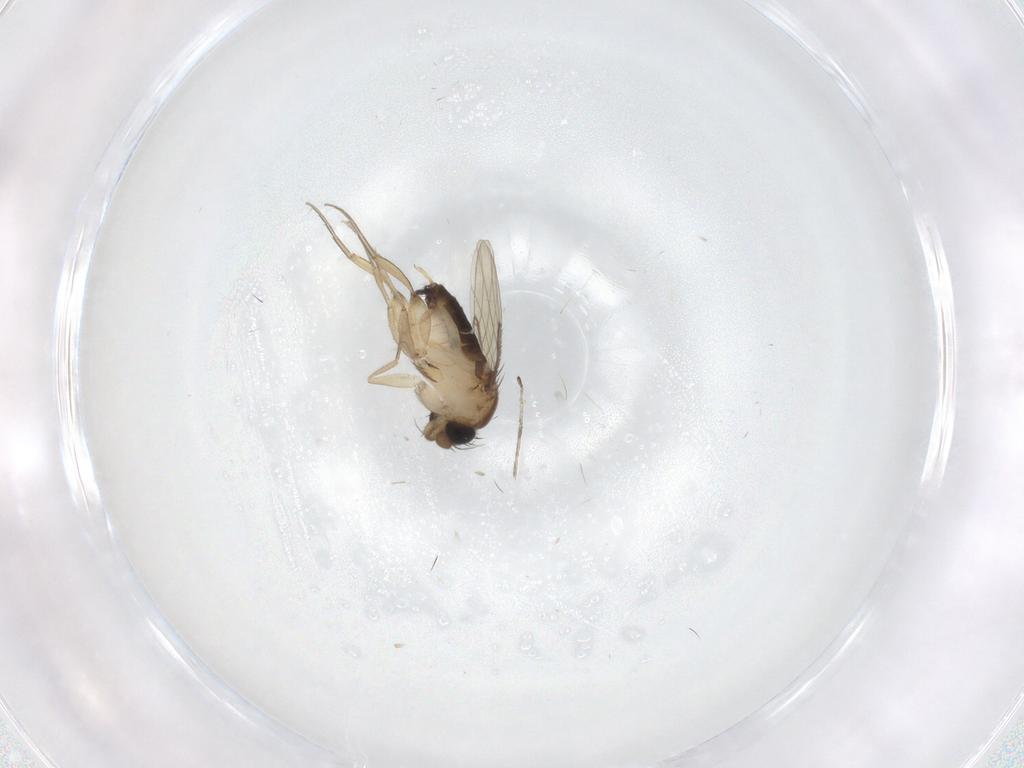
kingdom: Animalia
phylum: Arthropoda
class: Insecta
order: Diptera
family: Phoridae
